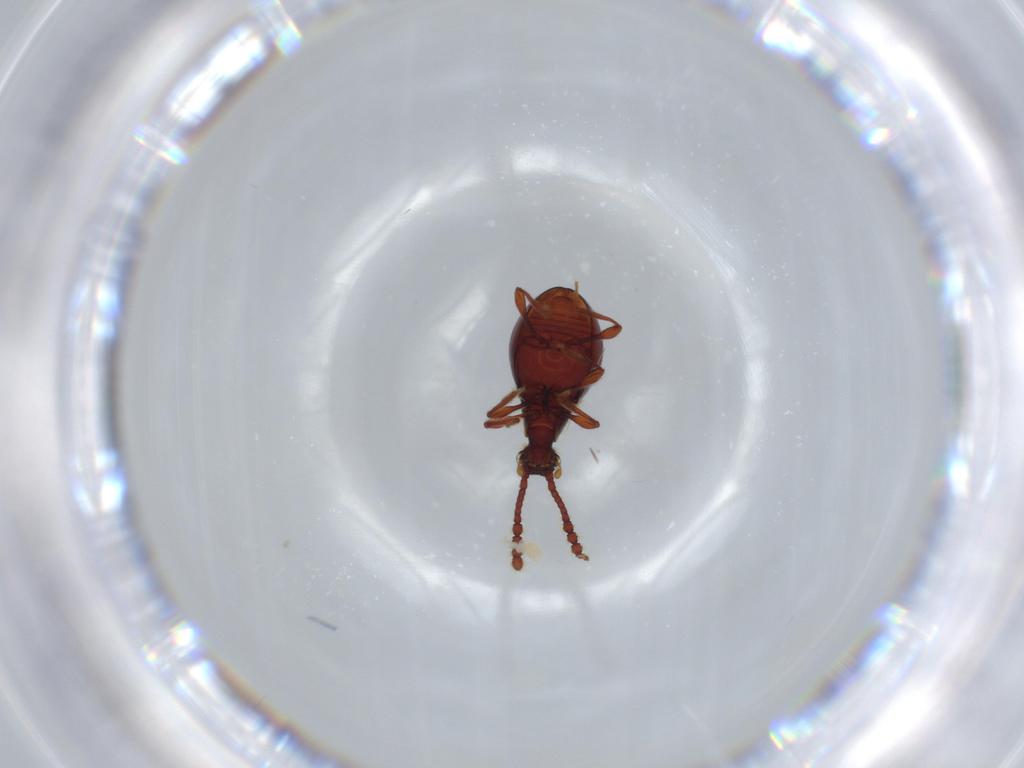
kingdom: Animalia
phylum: Arthropoda
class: Insecta
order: Coleoptera
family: Staphylinidae
